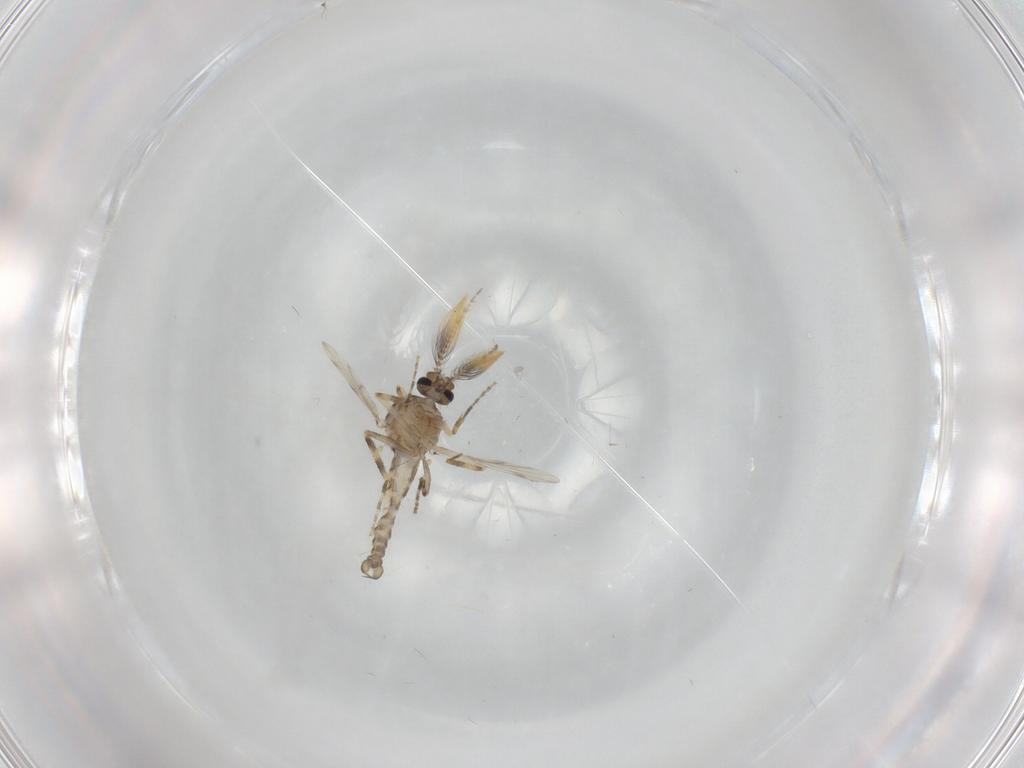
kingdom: Animalia
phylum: Arthropoda
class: Insecta
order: Diptera
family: Ceratopogonidae
